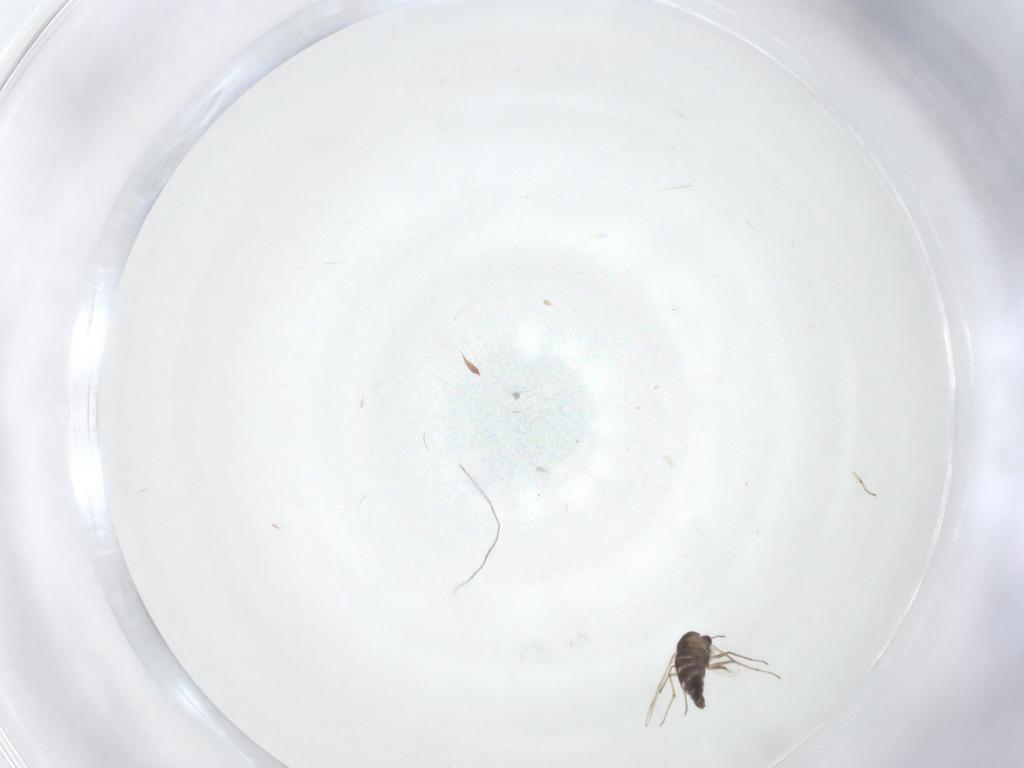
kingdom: Animalia
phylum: Arthropoda
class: Insecta
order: Diptera
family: Chironomidae
